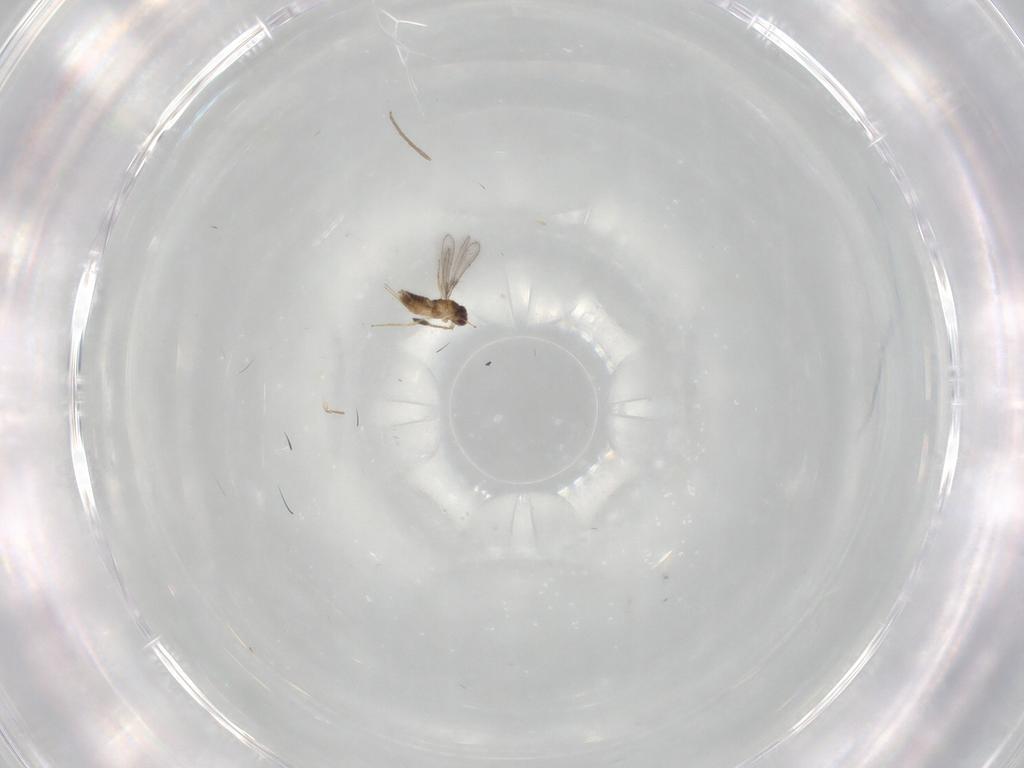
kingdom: Animalia
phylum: Arthropoda
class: Insecta
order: Hymenoptera
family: Mymaridae
